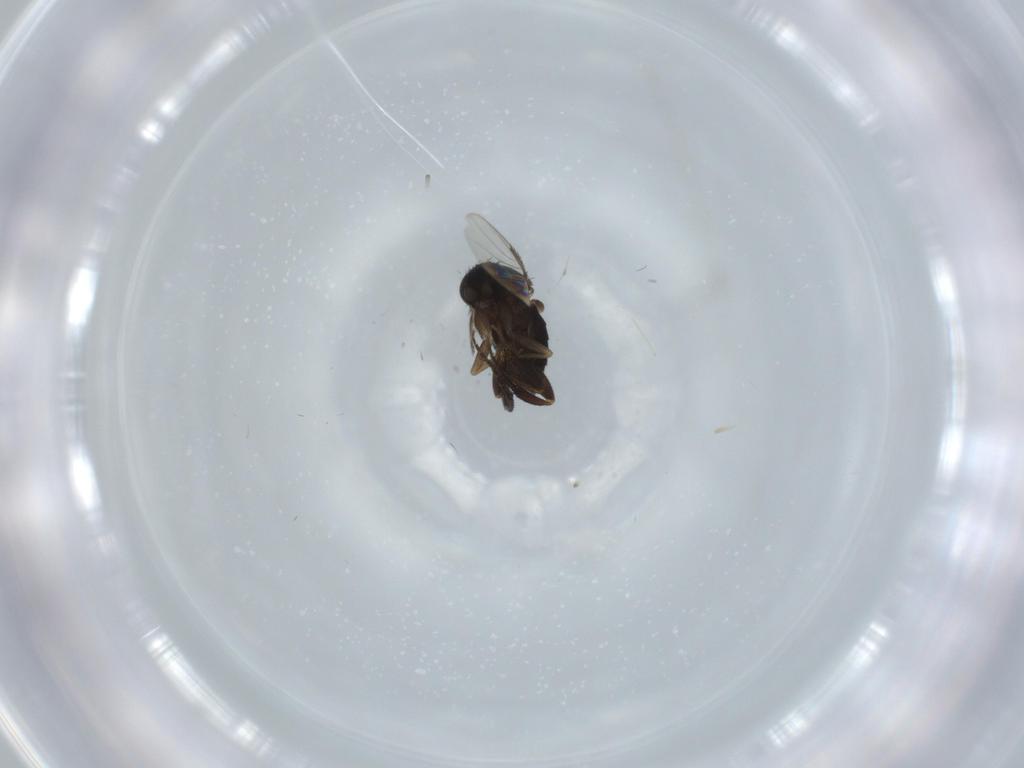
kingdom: Animalia
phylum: Arthropoda
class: Insecta
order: Diptera
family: Phoridae
